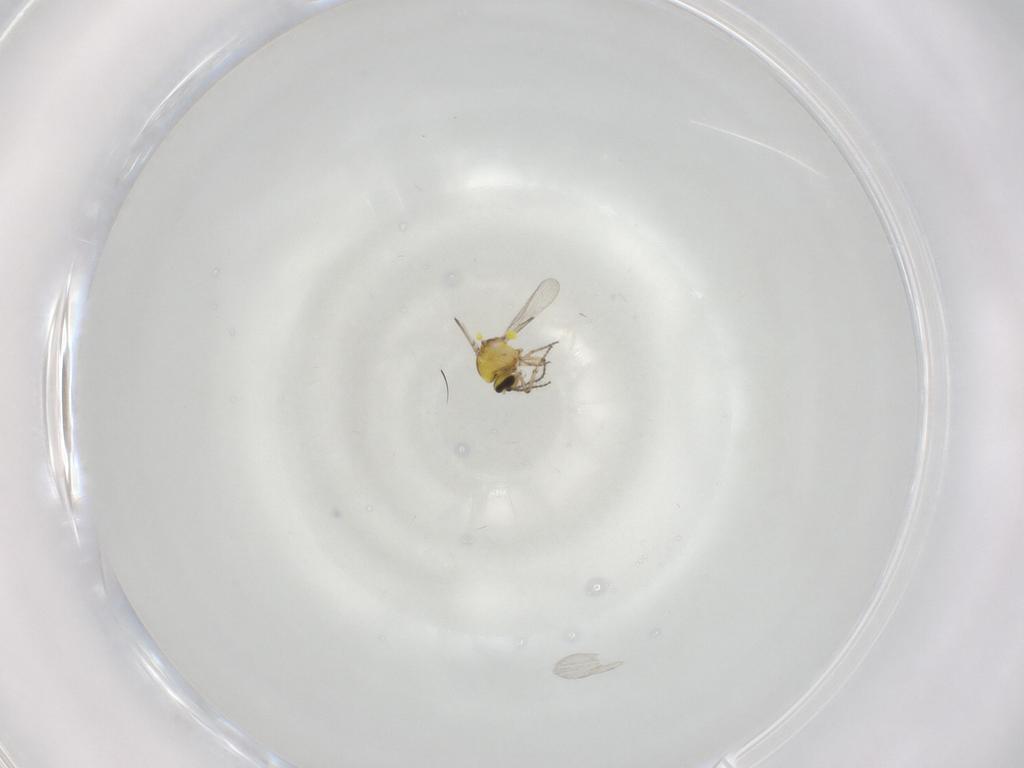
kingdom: Animalia
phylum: Arthropoda
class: Insecta
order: Diptera
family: Ceratopogonidae
